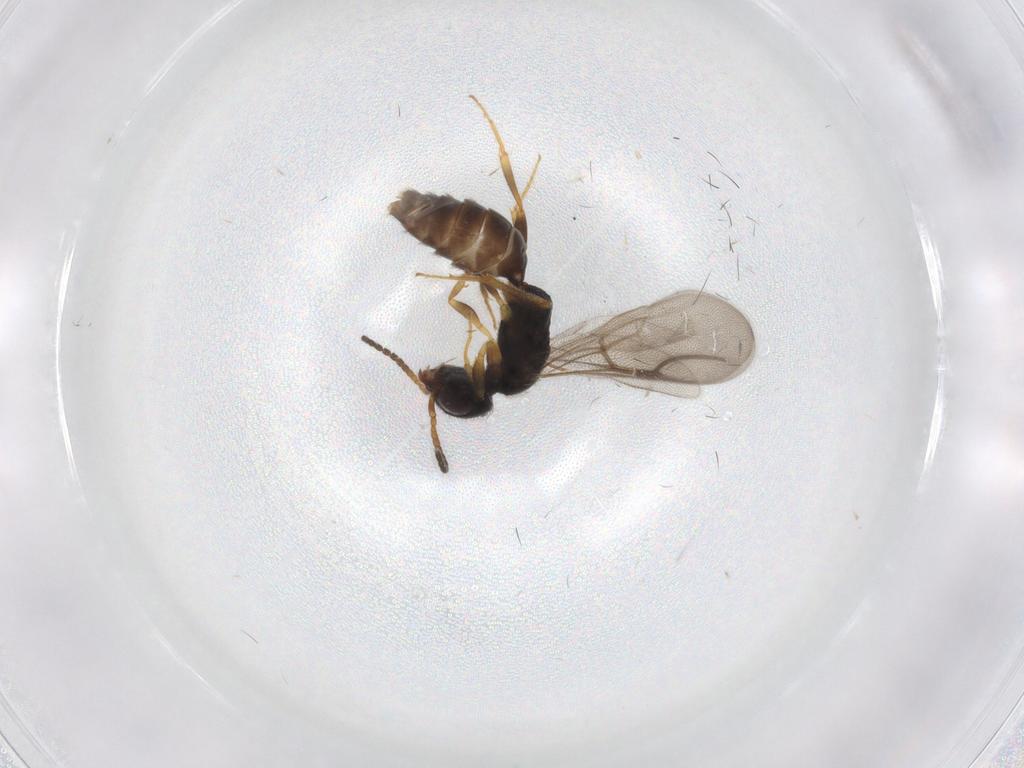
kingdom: Animalia
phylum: Arthropoda
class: Insecta
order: Hymenoptera
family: Bethylidae
